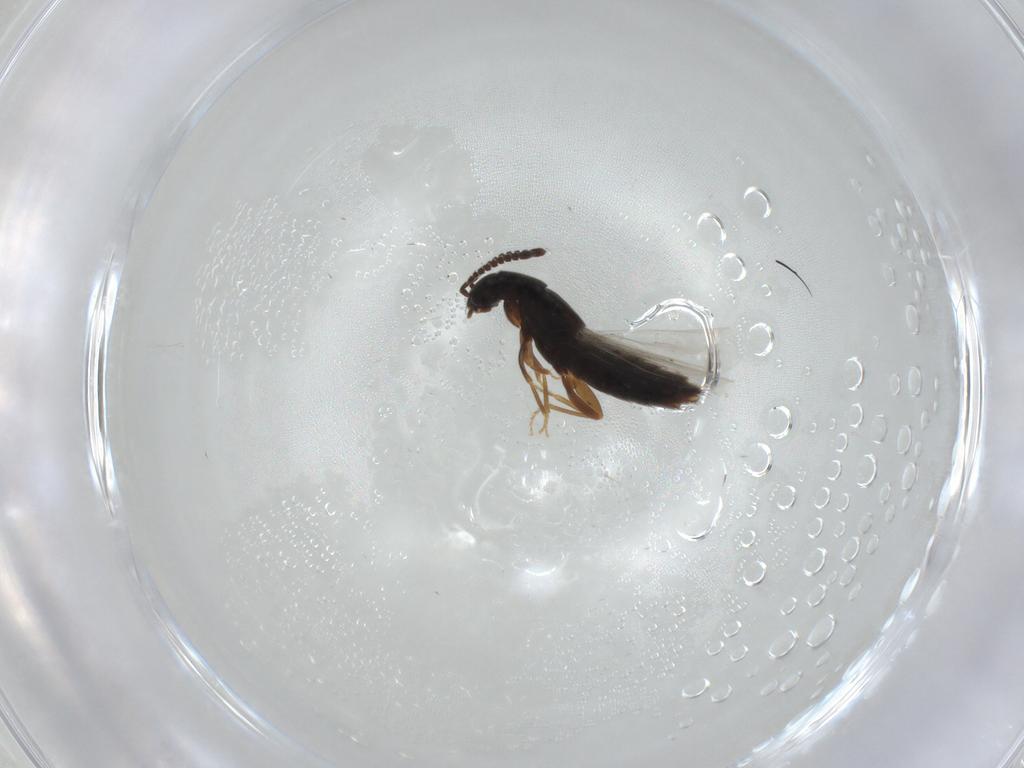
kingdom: Animalia
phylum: Arthropoda
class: Insecta
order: Coleoptera
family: Staphylinidae
